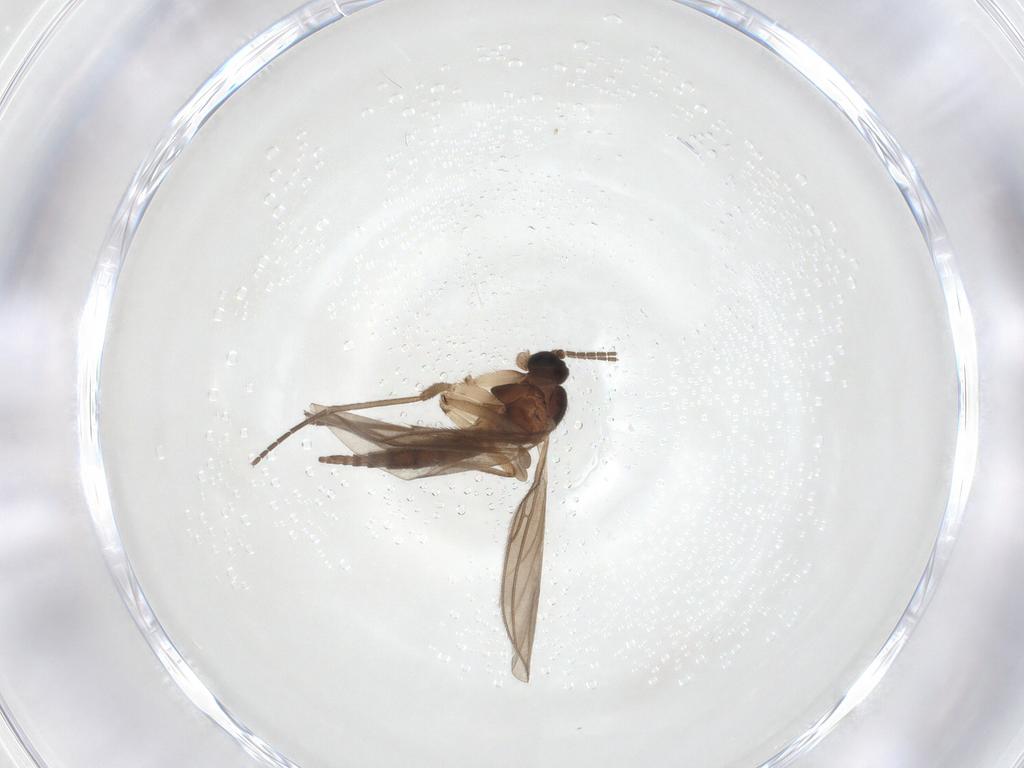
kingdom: Animalia
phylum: Arthropoda
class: Insecta
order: Diptera
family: Sciaridae
